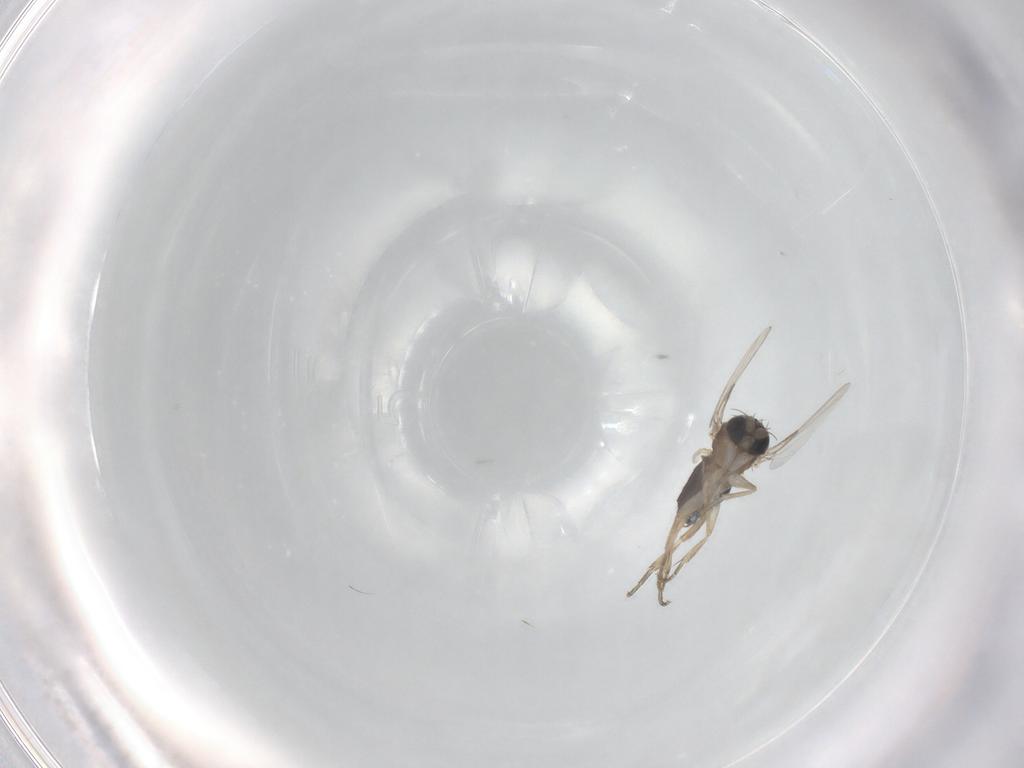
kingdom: Animalia
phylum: Arthropoda
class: Insecta
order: Diptera
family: Phoridae
